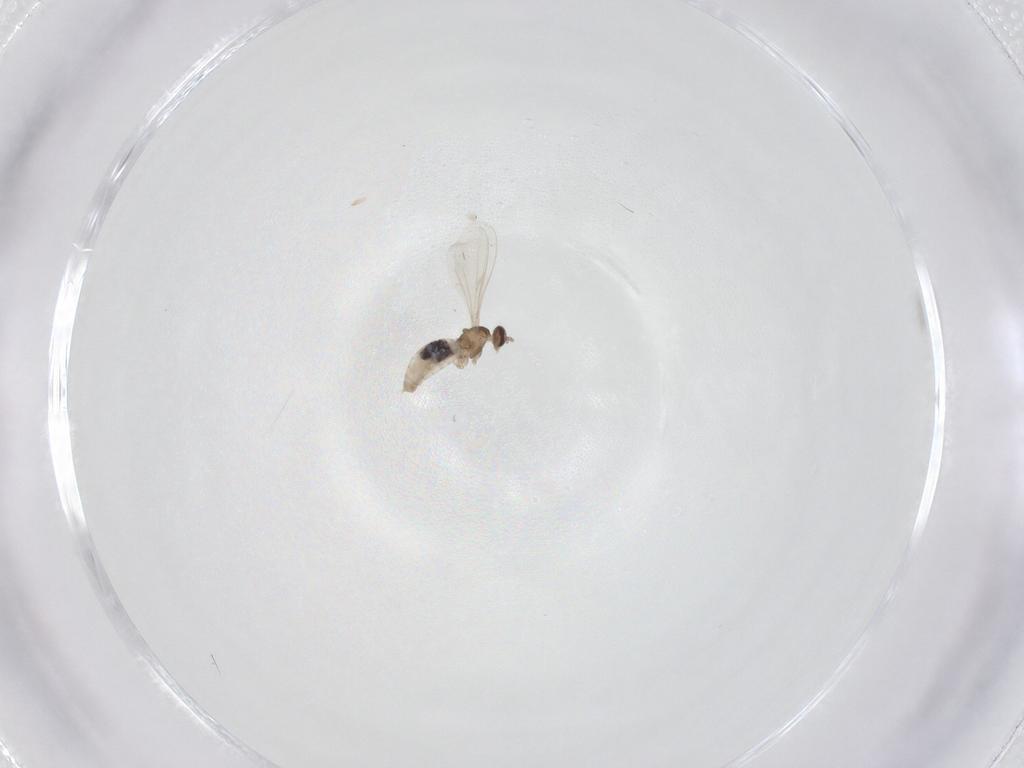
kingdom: Animalia
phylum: Arthropoda
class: Insecta
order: Diptera
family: Cecidomyiidae
